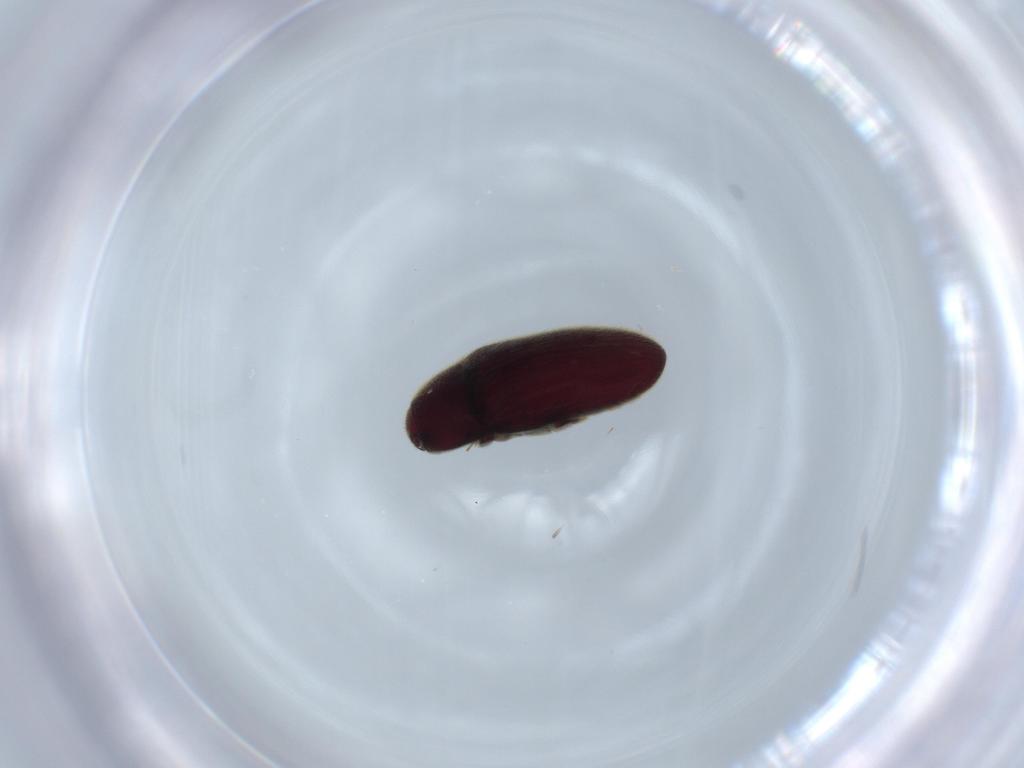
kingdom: Animalia
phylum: Arthropoda
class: Insecta
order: Coleoptera
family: Throscidae
